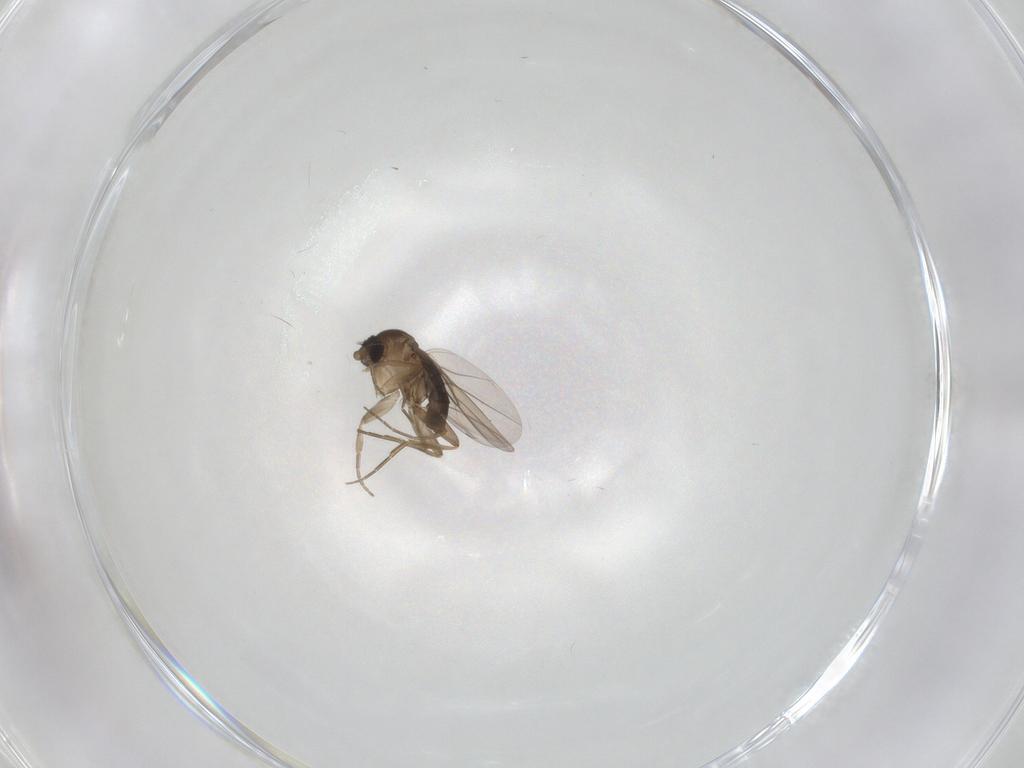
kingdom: Animalia
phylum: Arthropoda
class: Insecta
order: Diptera
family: Phoridae
